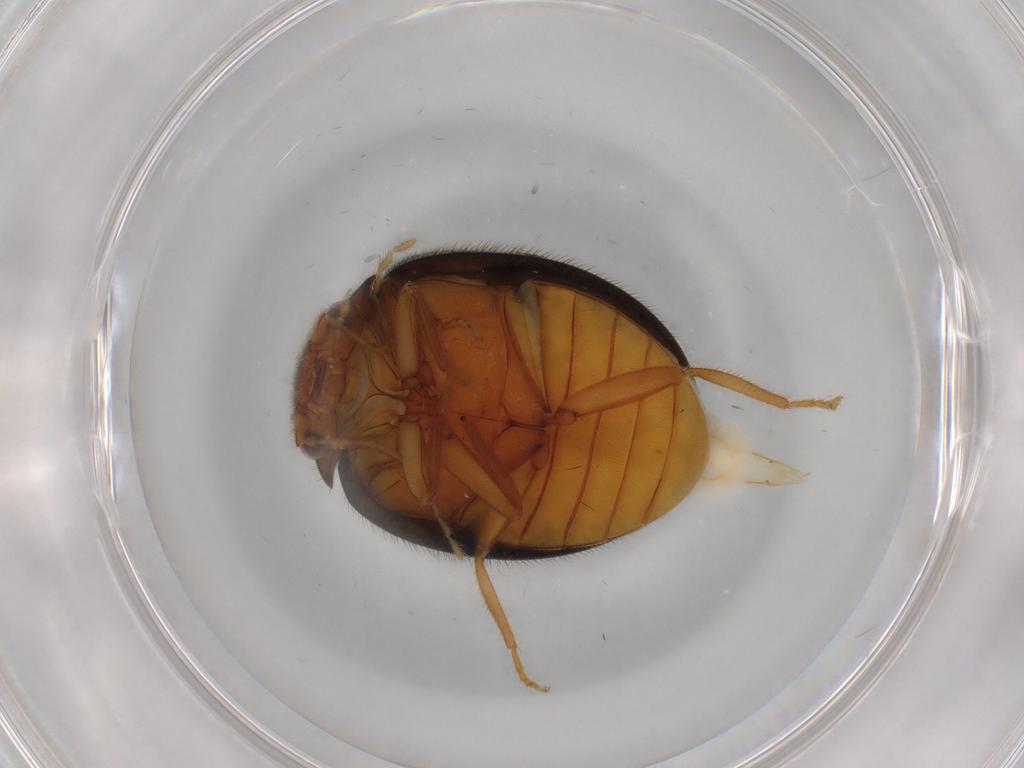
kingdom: Animalia
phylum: Arthropoda
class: Insecta
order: Coleoptera
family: Scirtidae
